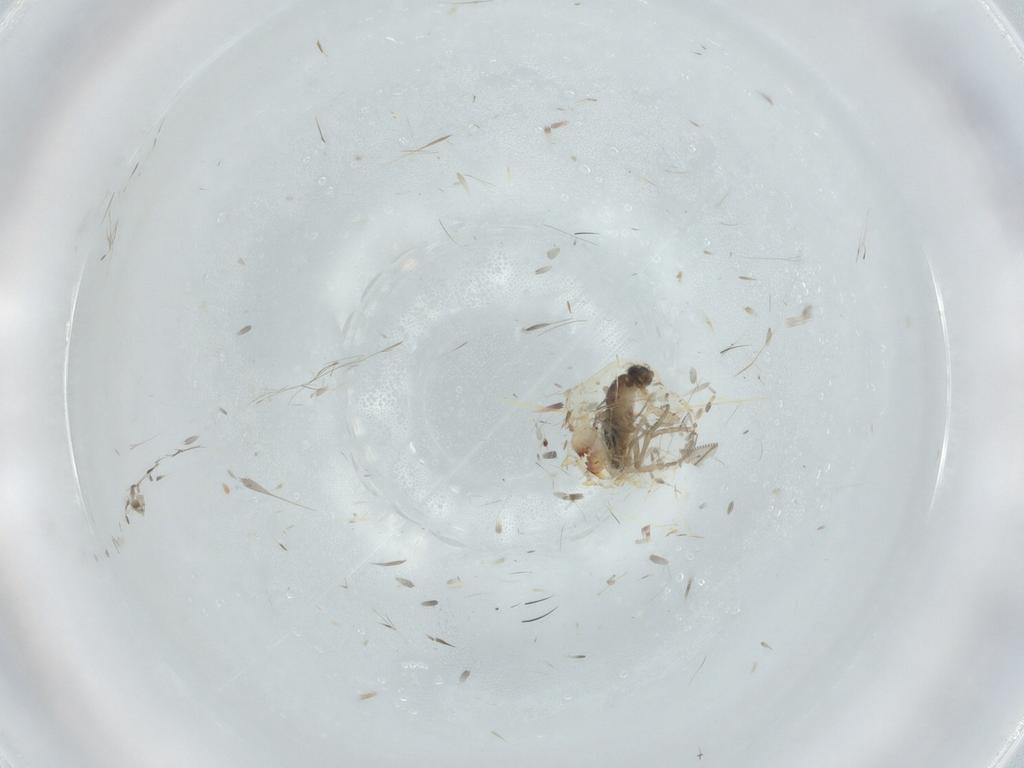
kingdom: Animalia
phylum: Arthropoda
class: Insecta
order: Diptera
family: Cecidomyiidae
